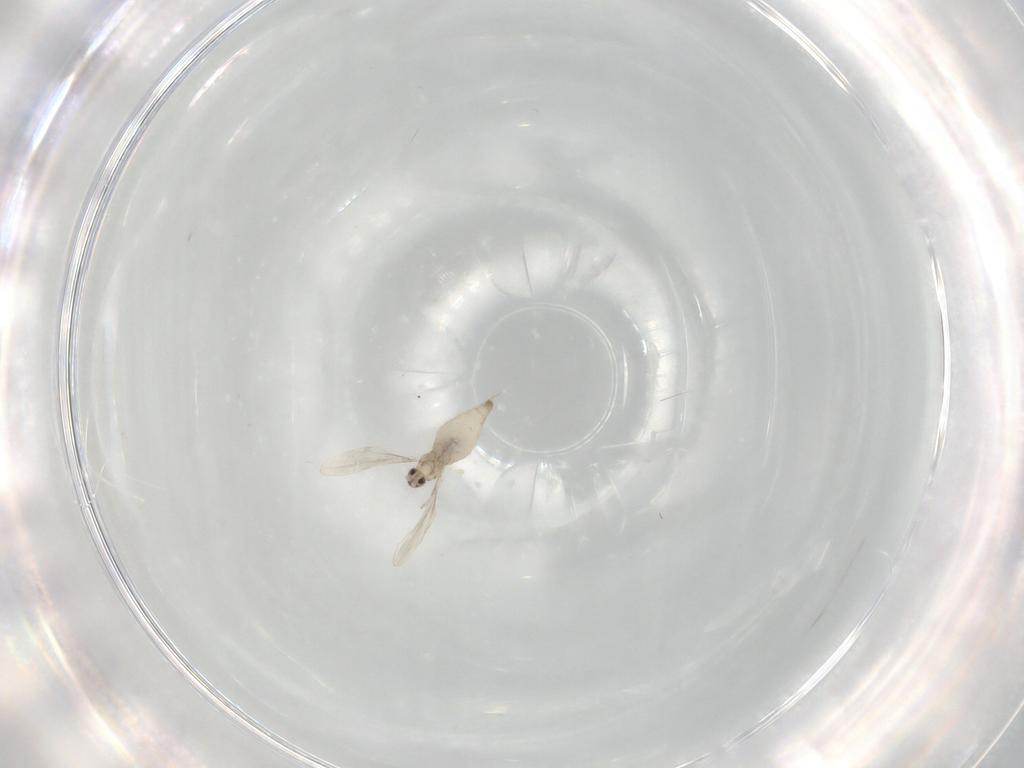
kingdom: Animalia
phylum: Arthropoda
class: Insecta
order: Diptera
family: Cecidomyiidae
